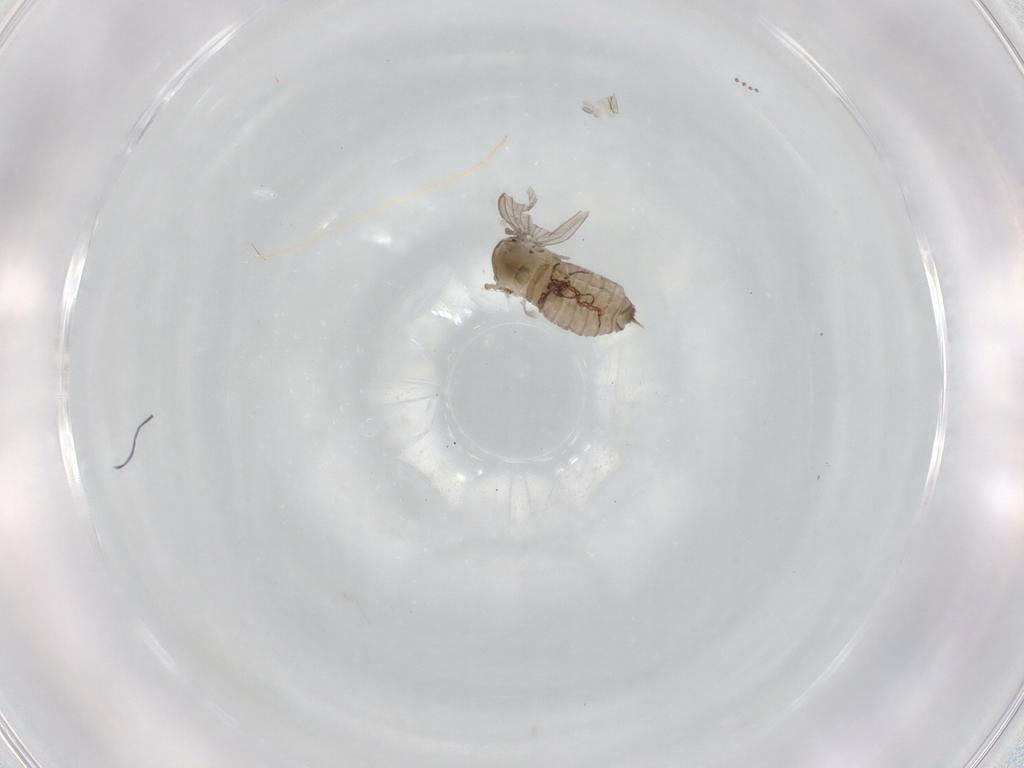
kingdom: Animalia
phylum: Arthropoda
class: Insecta
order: Diptera
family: Psychodidae
